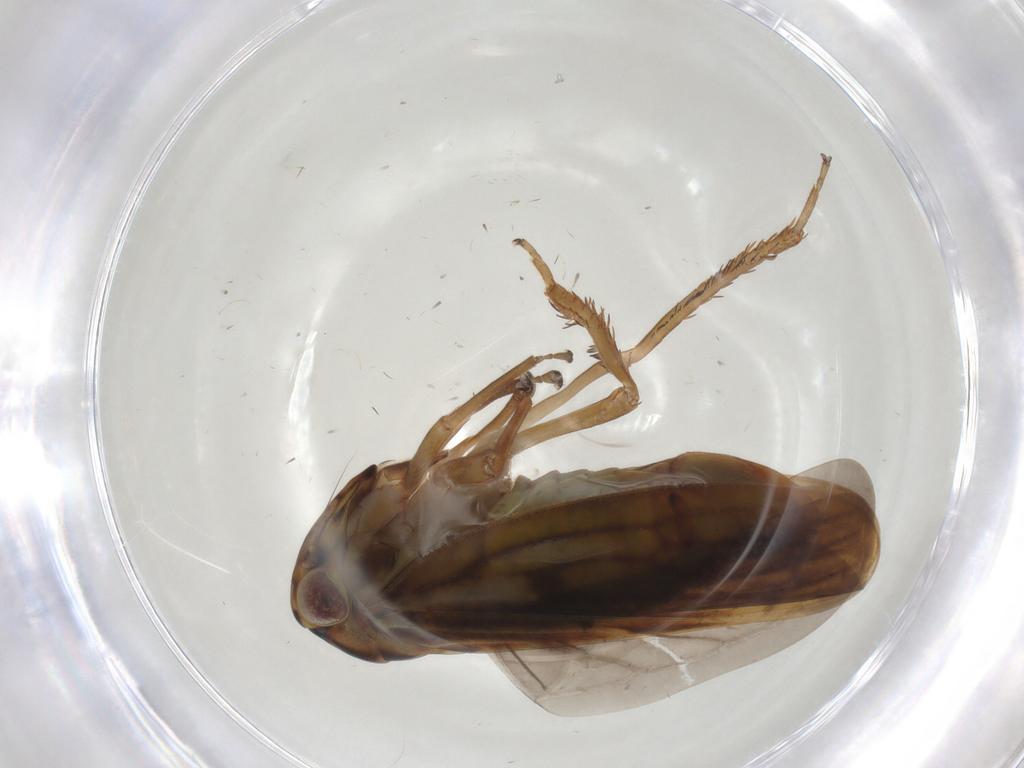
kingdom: Animalia
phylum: Arthropoda
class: Insecta
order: Hemiptera
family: Cicadellidae
